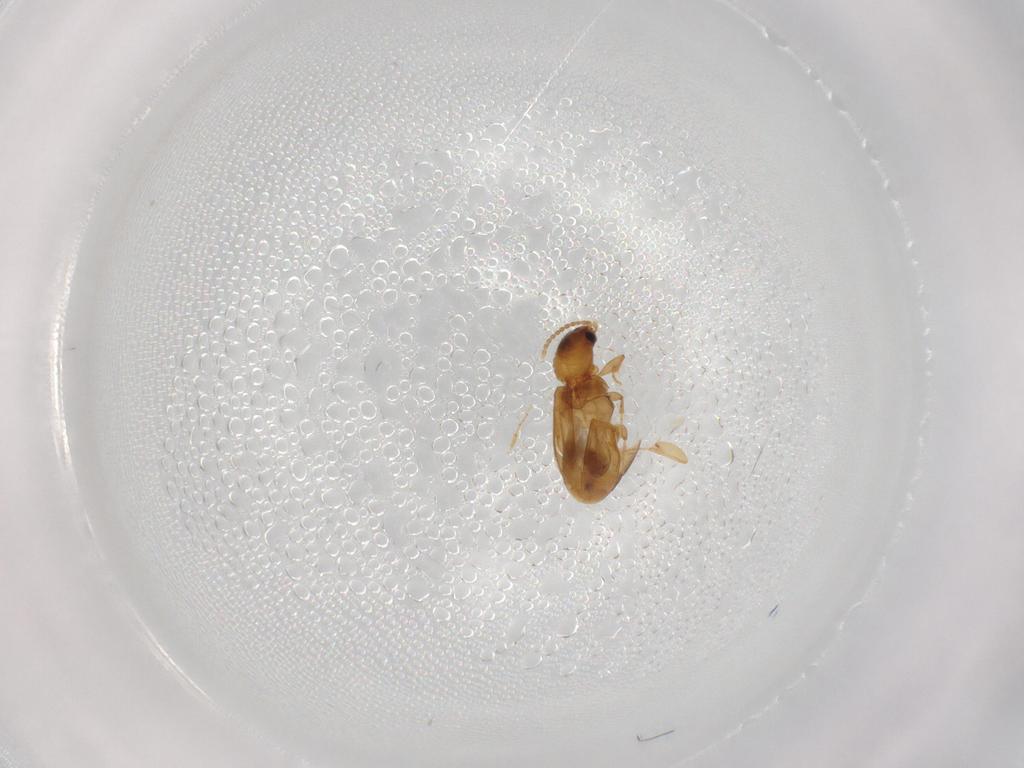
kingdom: Animalia
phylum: Arthropoda
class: Insecta
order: Coleoptera
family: Carabidae
